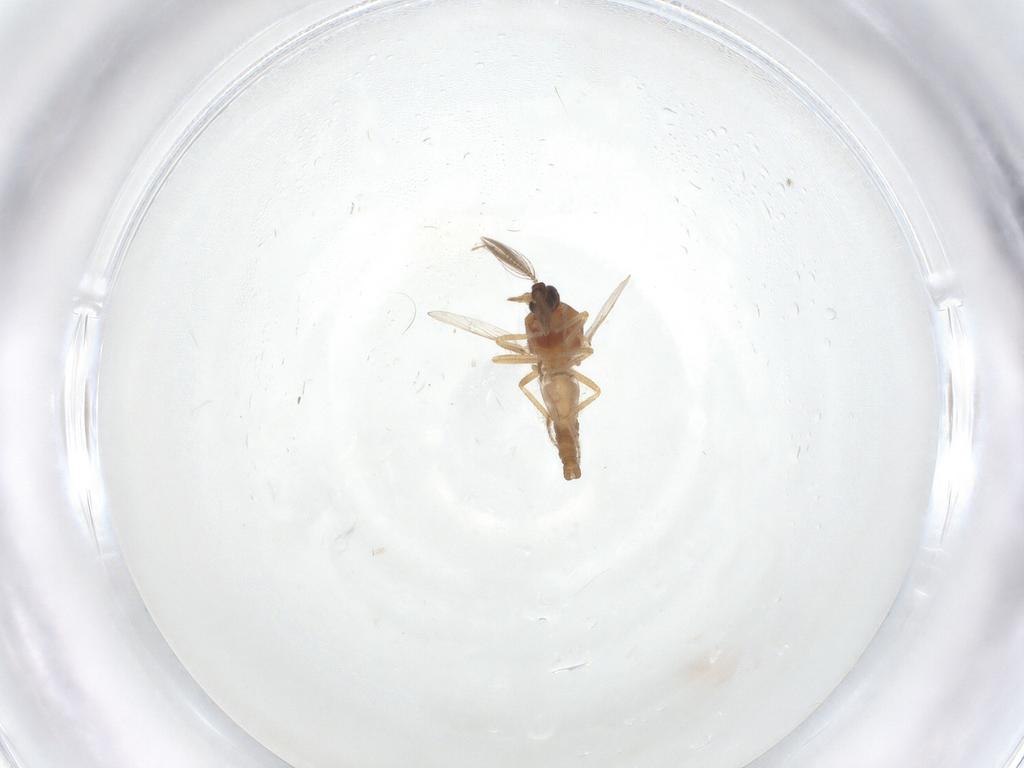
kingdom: Animalia
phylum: Arthropoda
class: Insecta
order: Diptera
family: Ceratopogonidae
